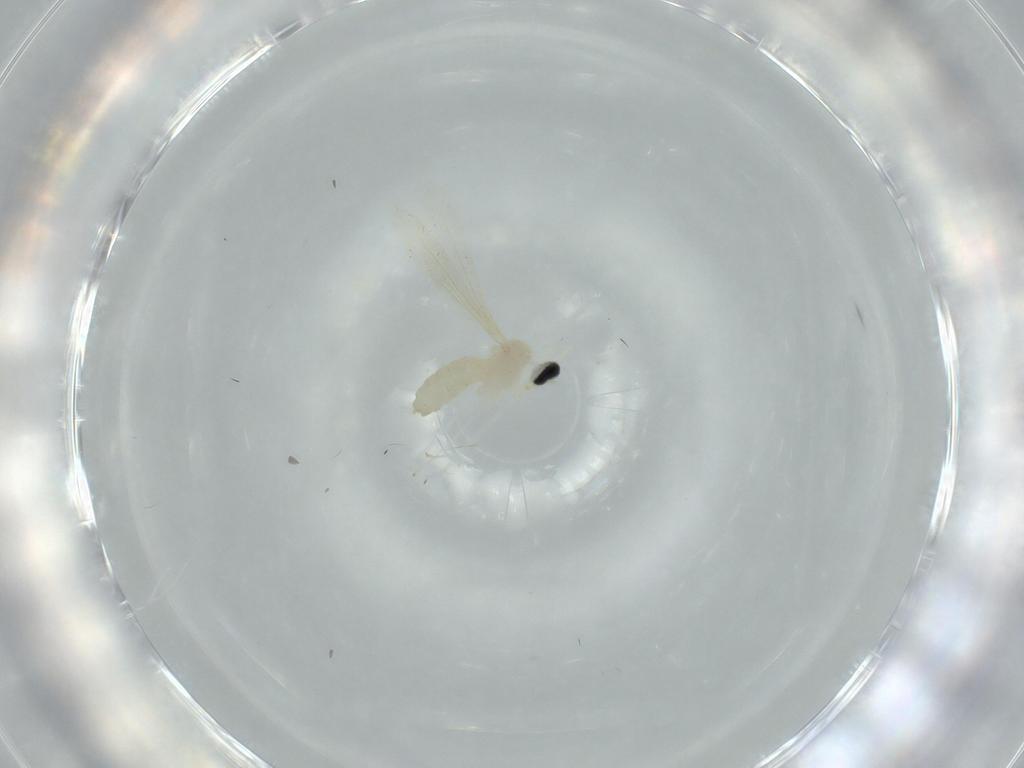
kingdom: Animalia
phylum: Arthropoda
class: Insecta
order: Diptera
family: Milichiidae
